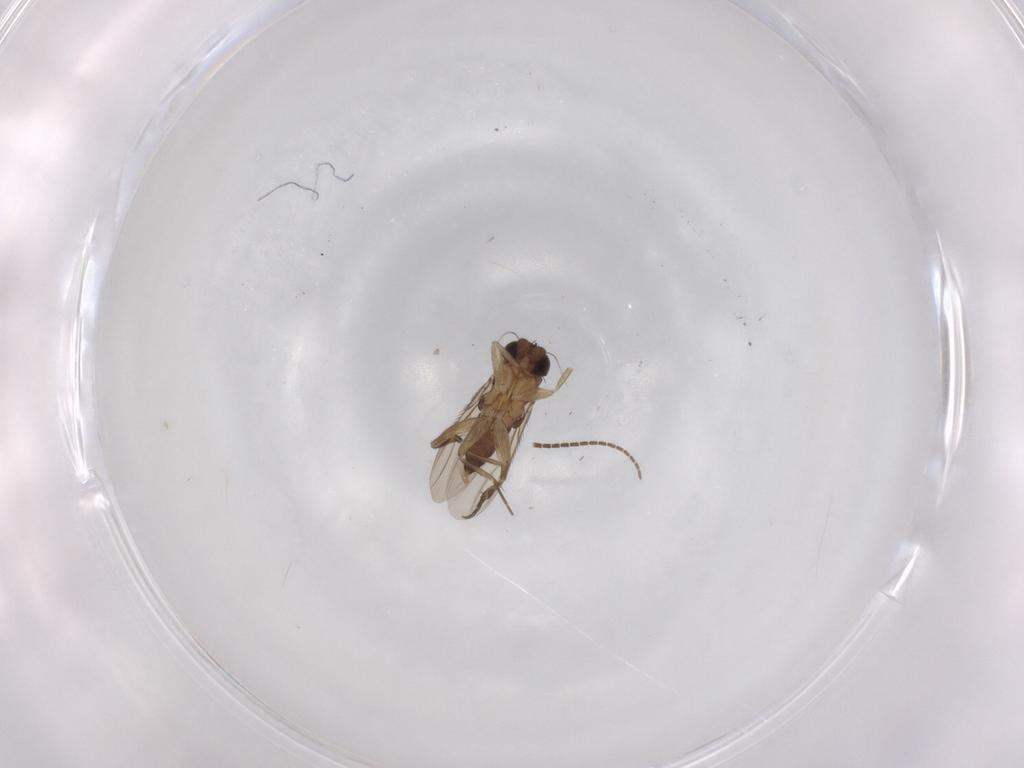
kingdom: Animalia
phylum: Arthropoda
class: Insecta
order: Diptera
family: Phoridae
